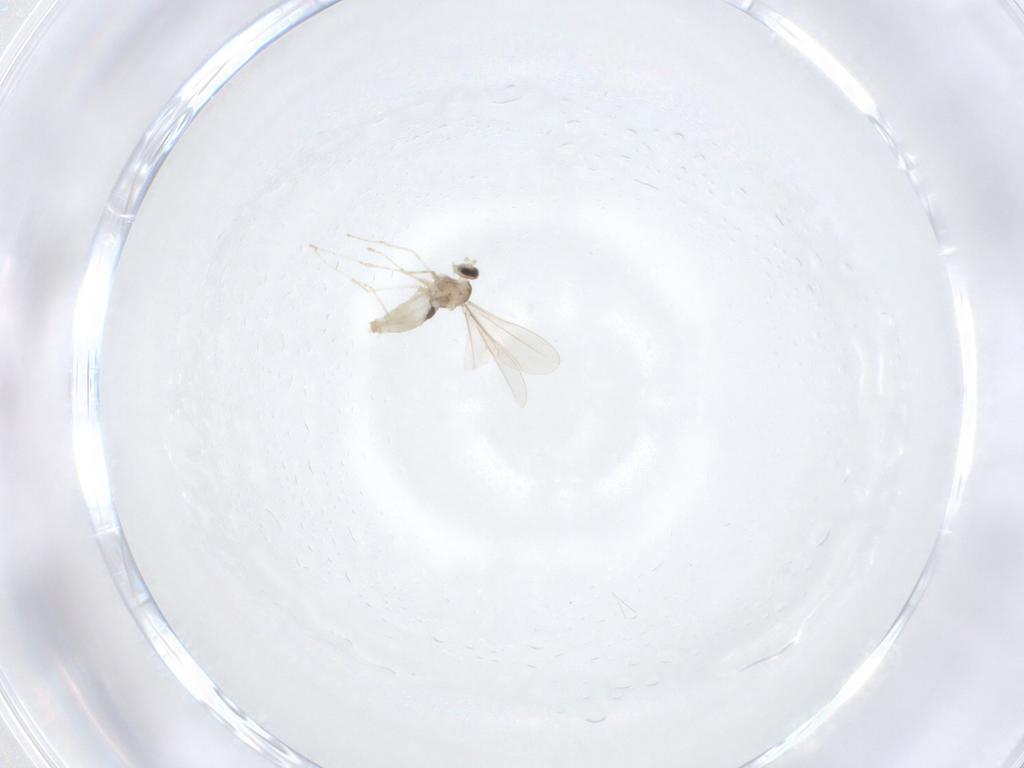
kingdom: Animalia
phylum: Arthropoda
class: Insecta
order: Diptera
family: Cecidomyiidae
